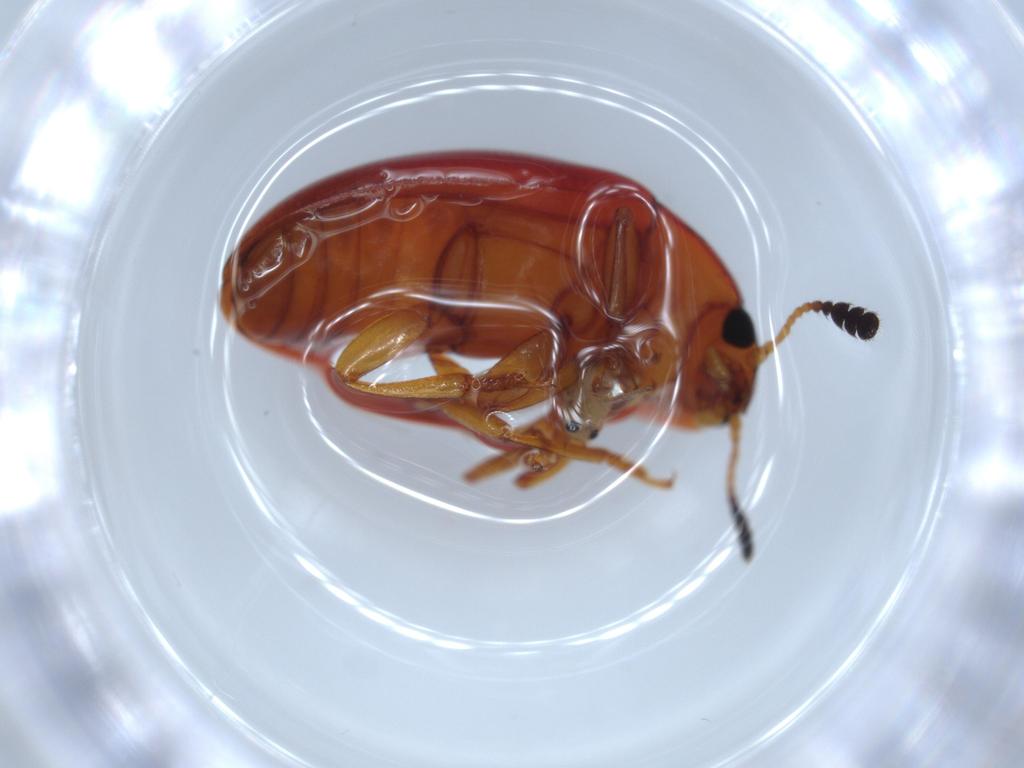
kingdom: Animalia
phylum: Arthropoda
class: Insecta
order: Coleoptera
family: Erotylidae
